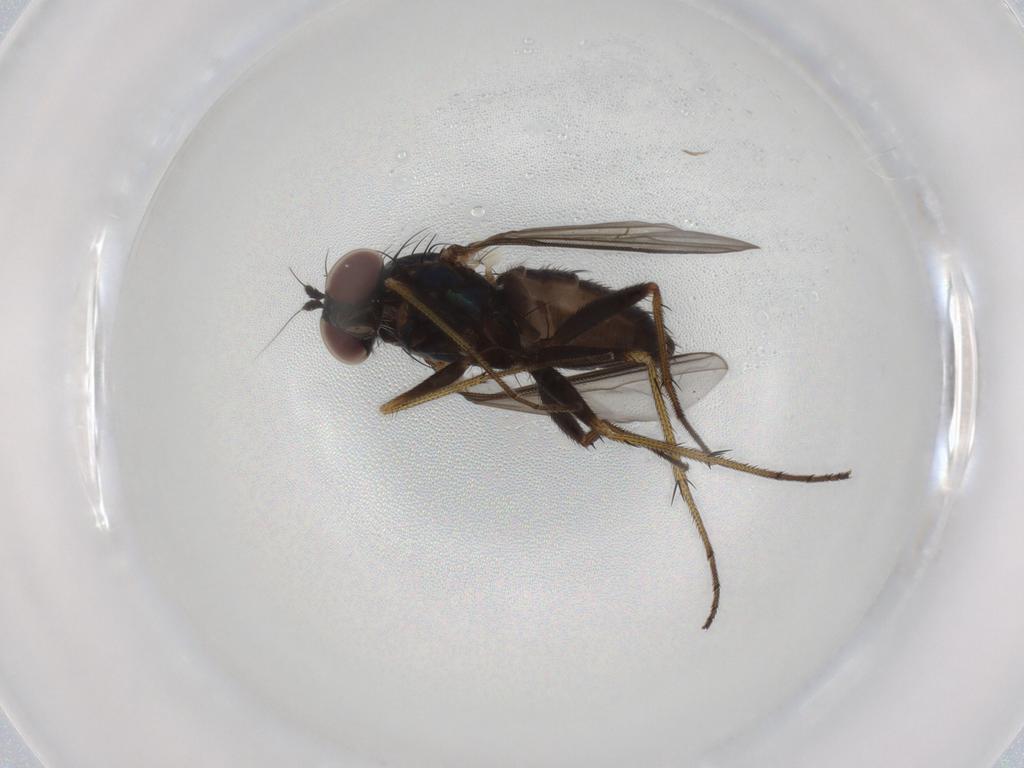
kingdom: Animalia
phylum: Arthropoda
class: Insecta
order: Diptera
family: Dolichopodidae
